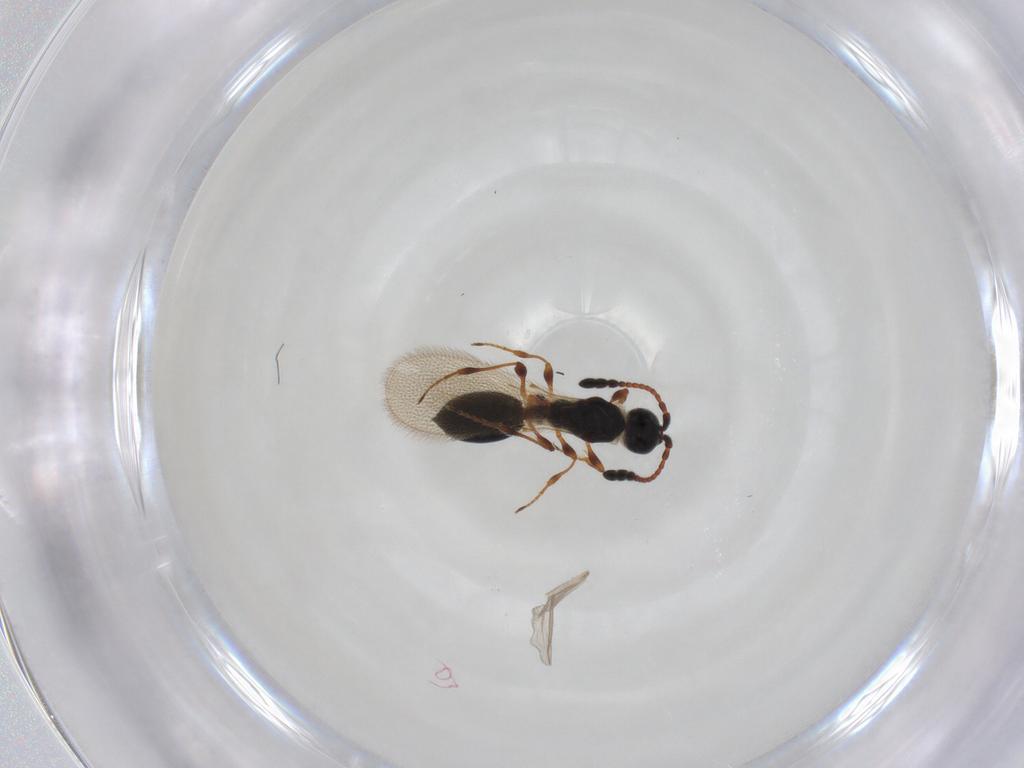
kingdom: Animalia
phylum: Arthropoda
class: Insecta
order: Hymenoptera
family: Diapriidae
